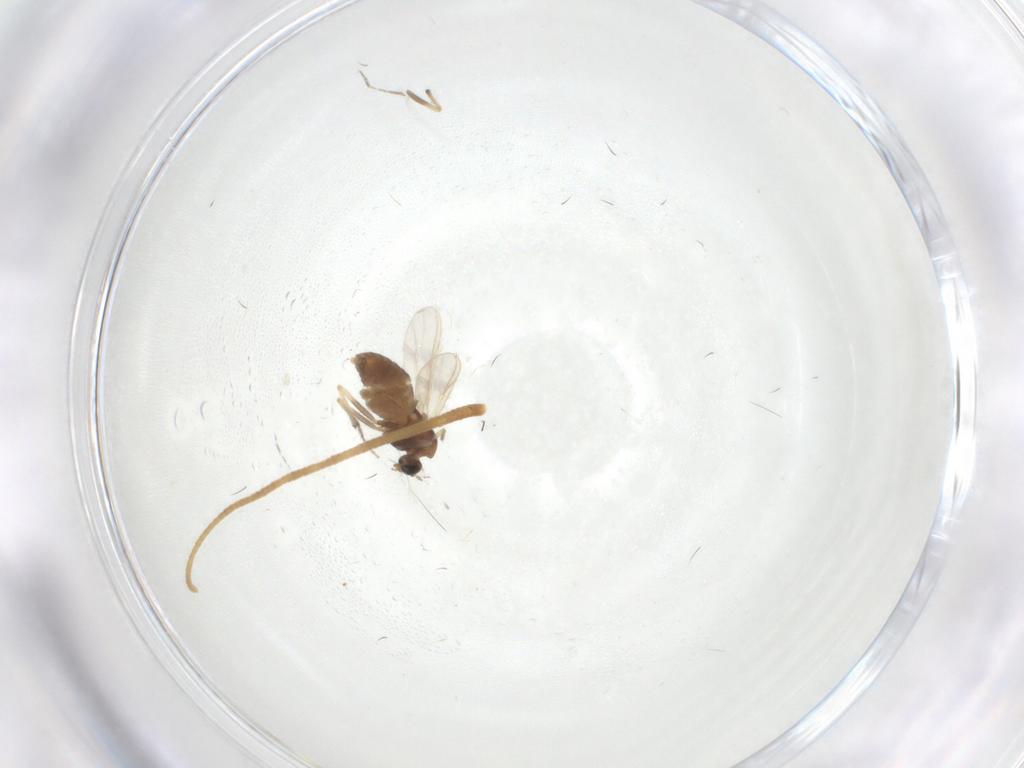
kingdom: Animalia
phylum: Arthropoda
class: Insecta
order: Diptera
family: Chironomidae
